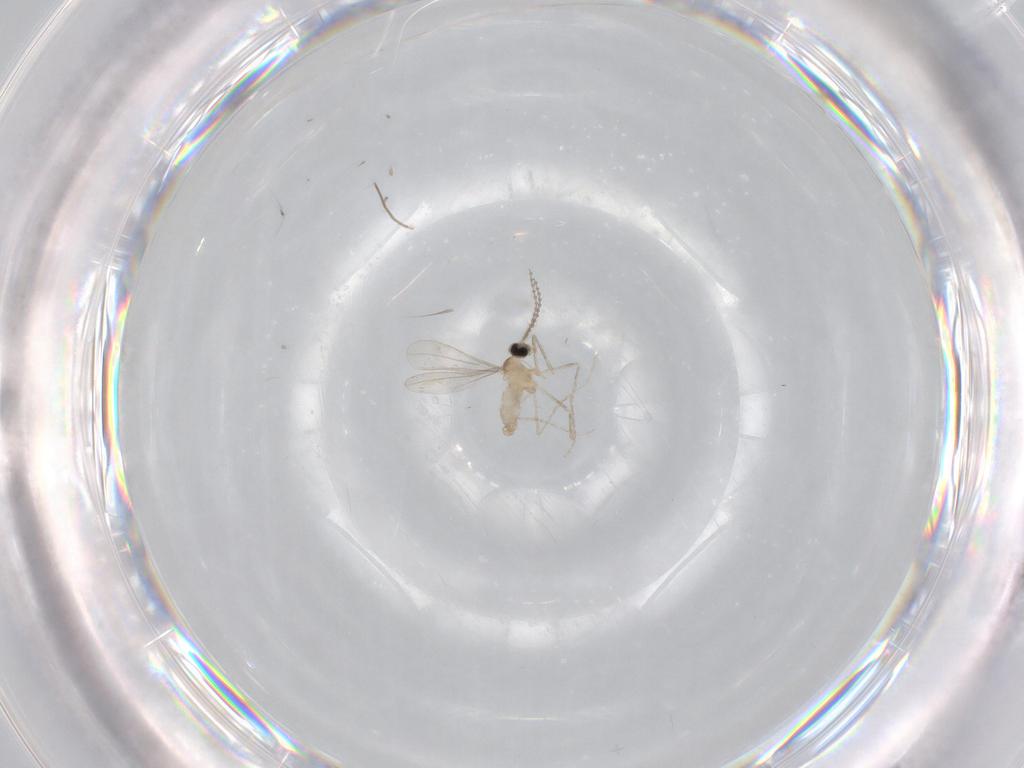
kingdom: Animalia
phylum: Arthropoda
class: Insecta
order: Diptera
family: Cecidomyiidae
